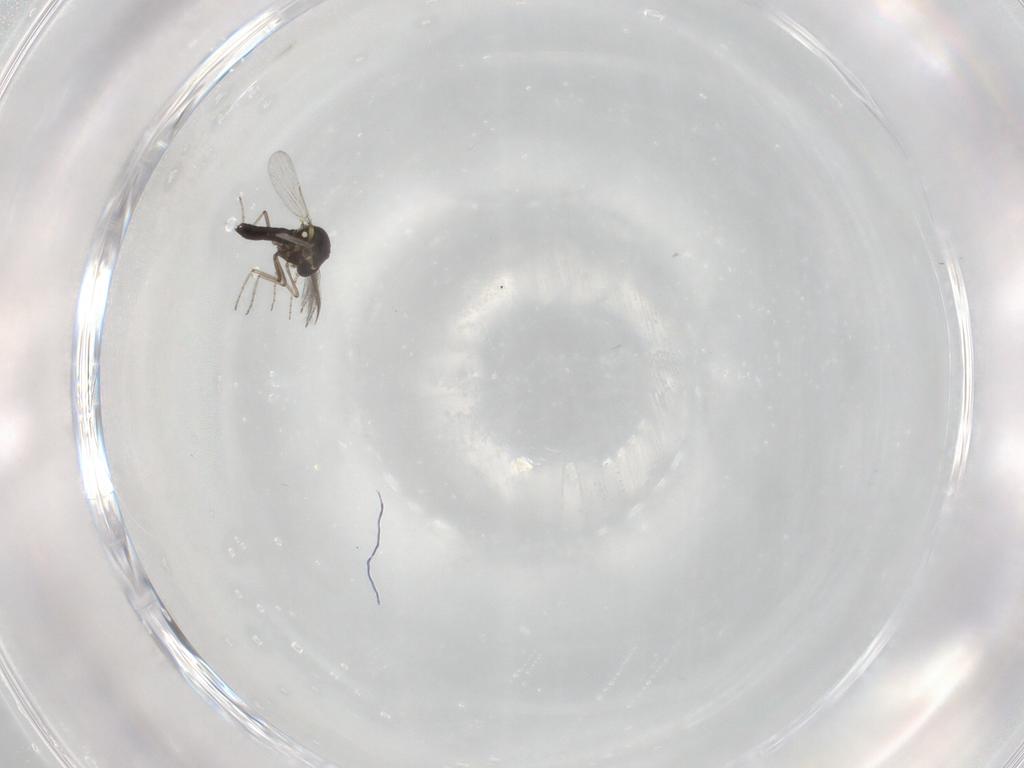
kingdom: Animalia
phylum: Arthropoda
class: Insecta
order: Diptera
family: Ceratopogonidae
